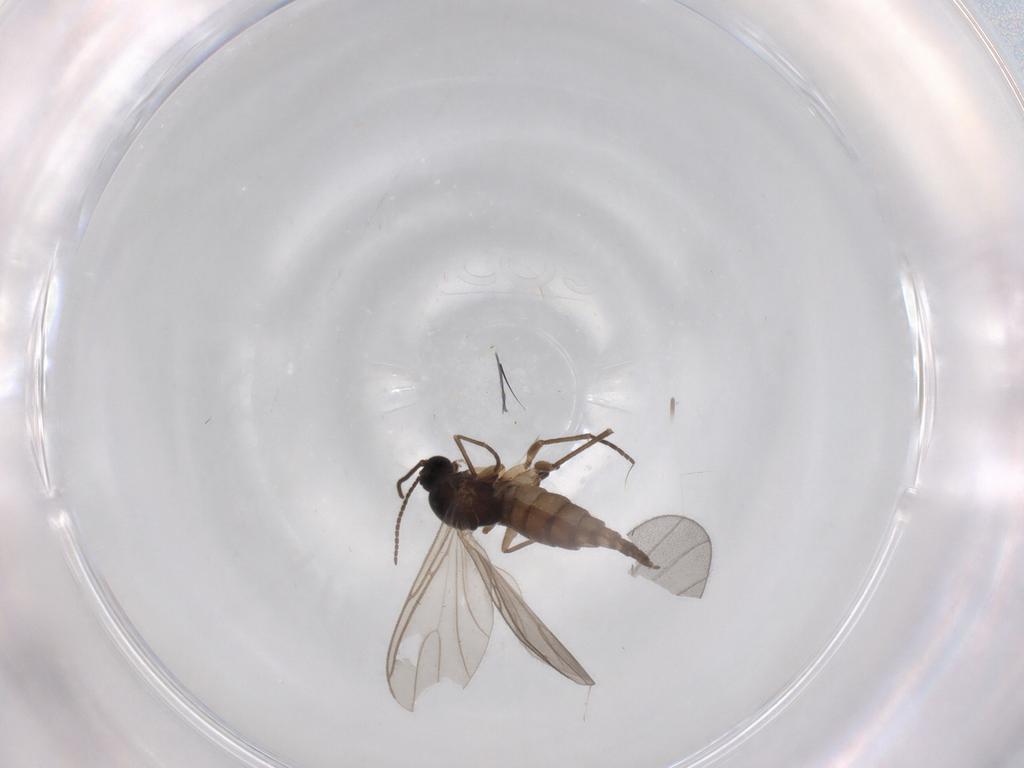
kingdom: Animalia
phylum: Arthropoda
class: Insecta
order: Diptera
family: Sciaridae
